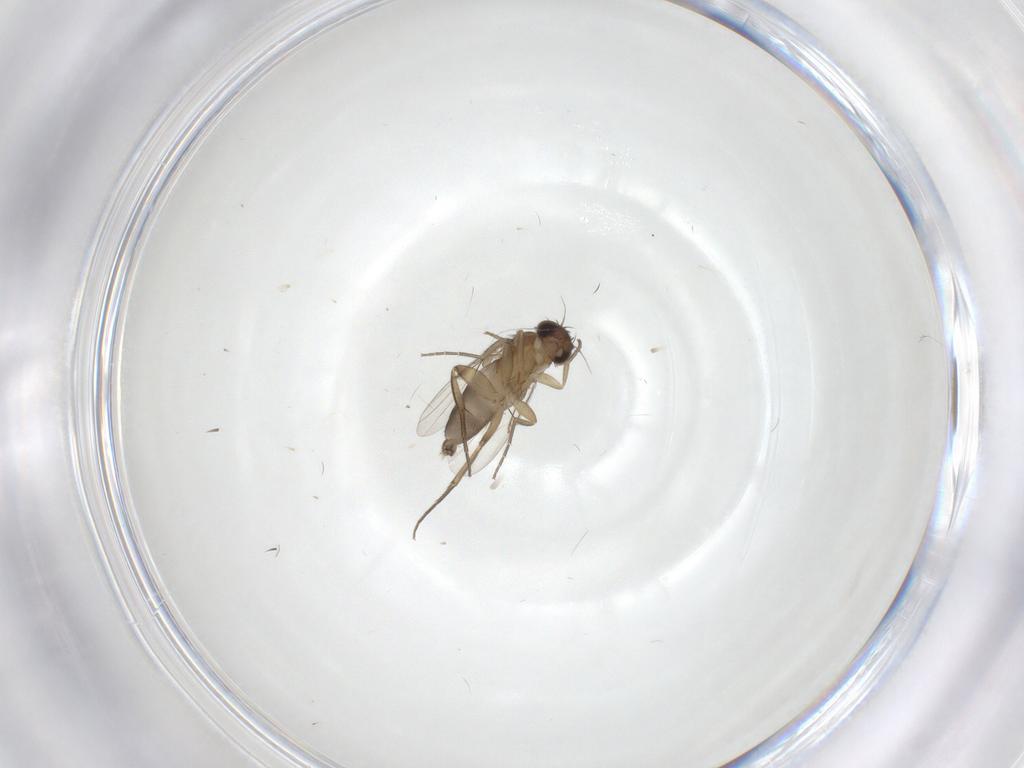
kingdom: Animalia
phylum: Arthropoda
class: Insecta
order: Diptera
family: Phoridae
